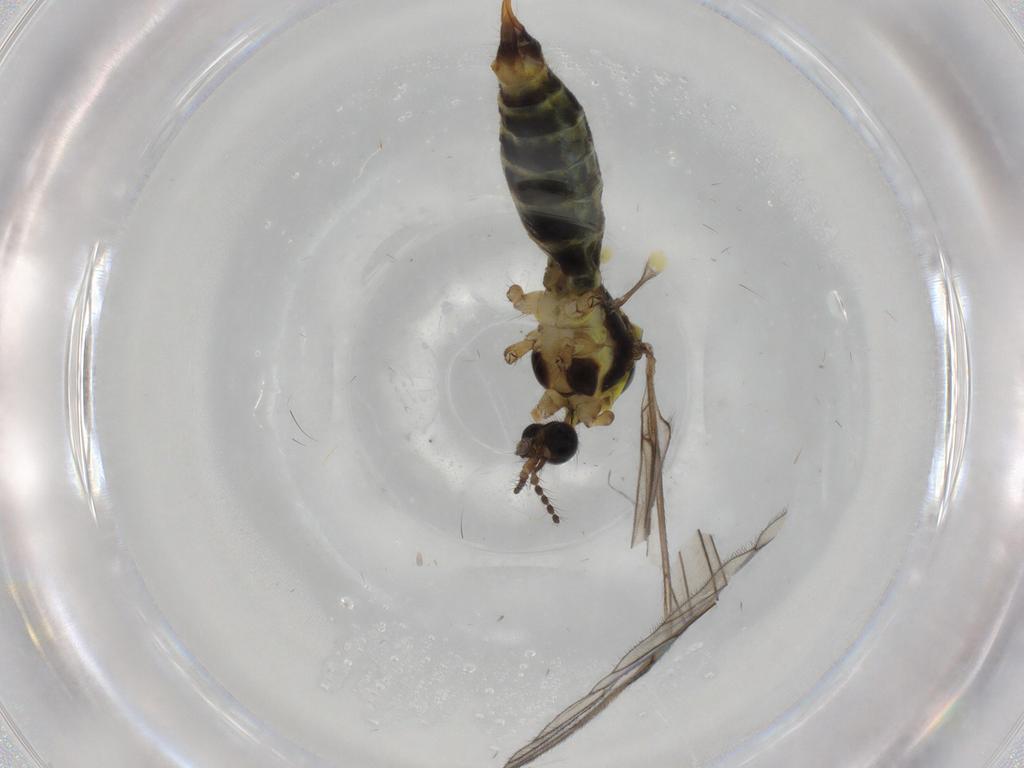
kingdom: Animalia
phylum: Arthropoda
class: Insecta
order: Diptera
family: Limoniidae
